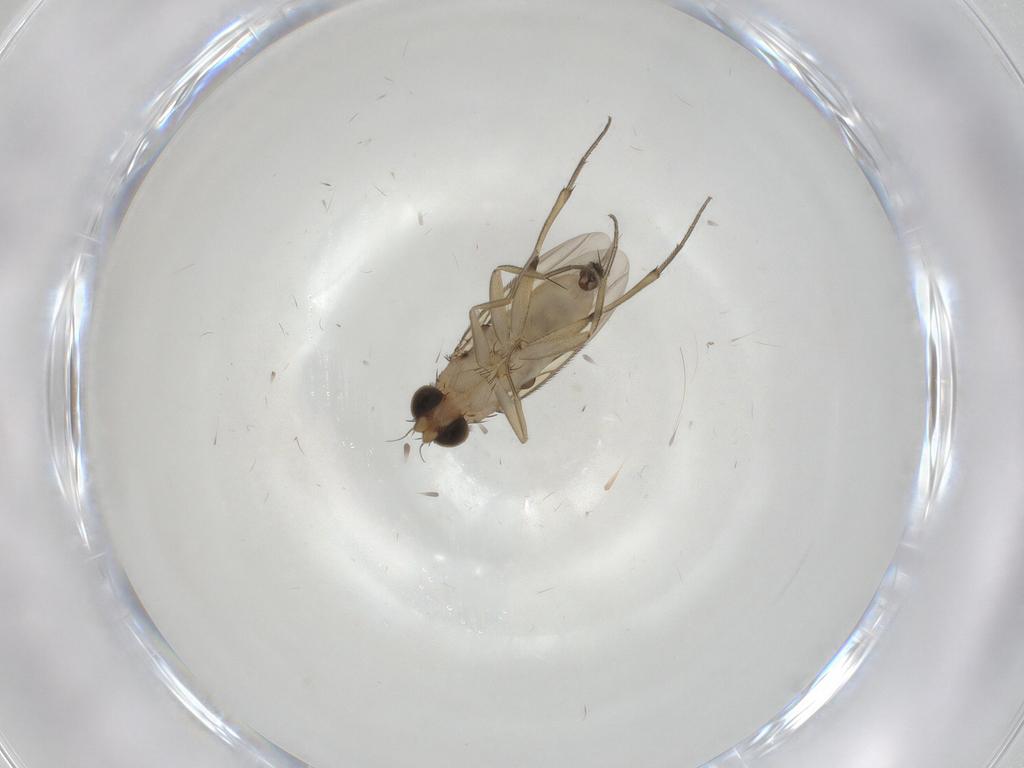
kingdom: Animalia
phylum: Arthropoda
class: Insecta
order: Diptera
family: Phoridae
